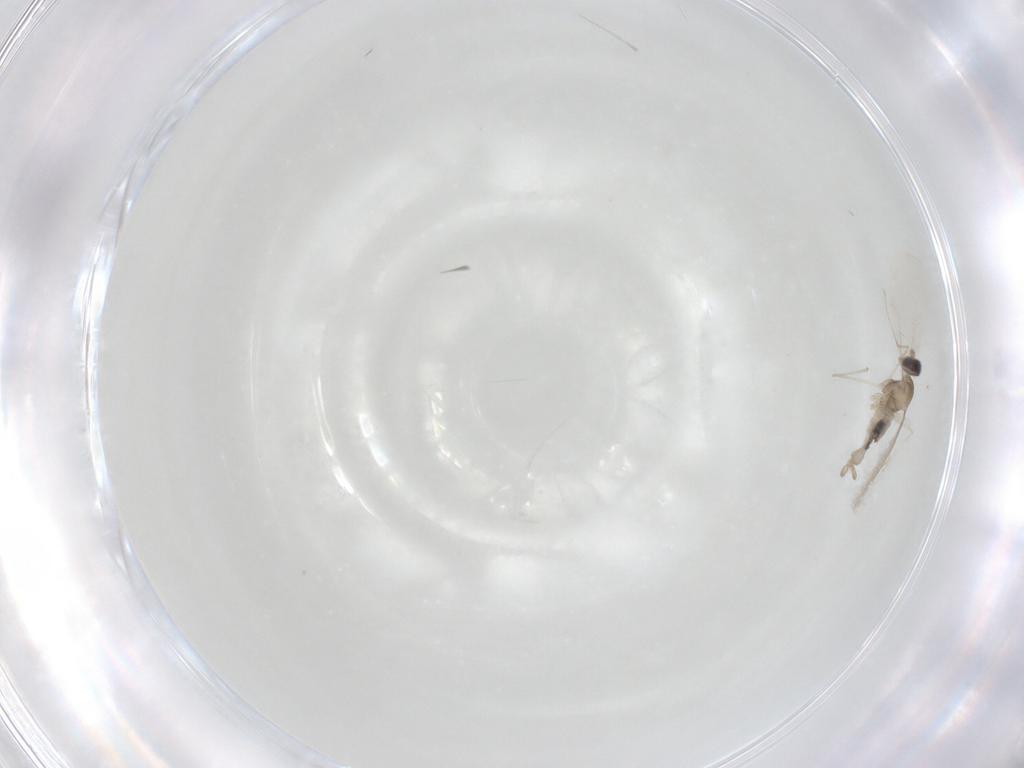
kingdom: Animalia
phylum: Arthropoda
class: Insecta
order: Diptera
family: Cecidomyiidae
